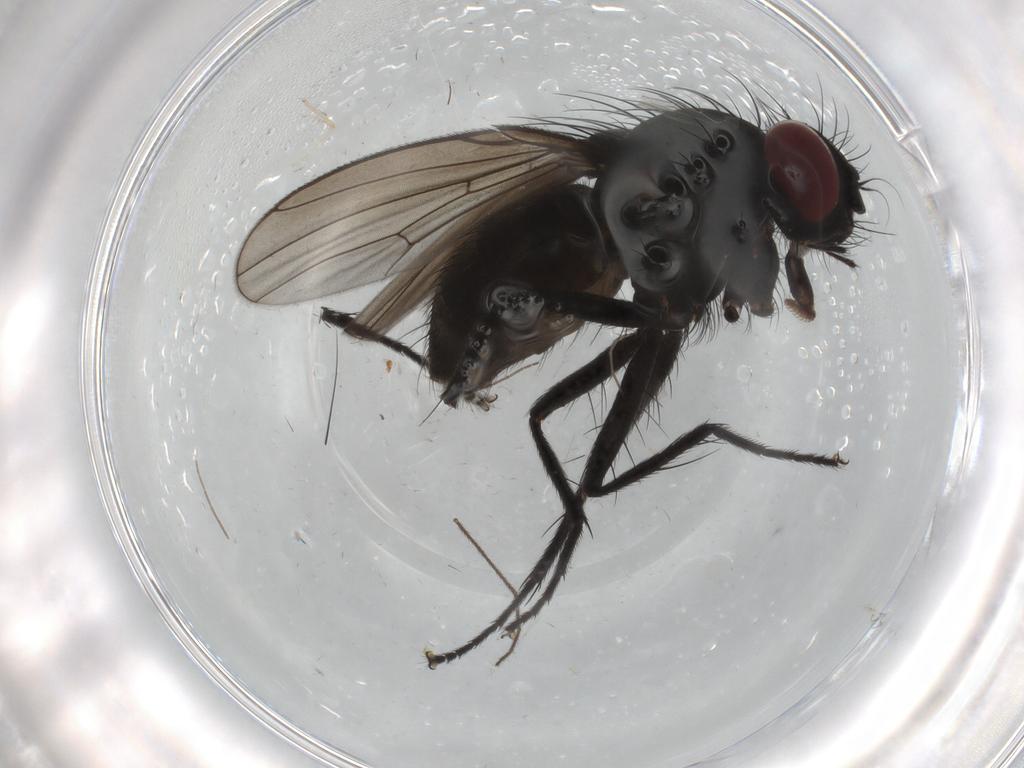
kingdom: Animalia
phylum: Arthropoda
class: Insecta
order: Diptera
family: Muscidae
